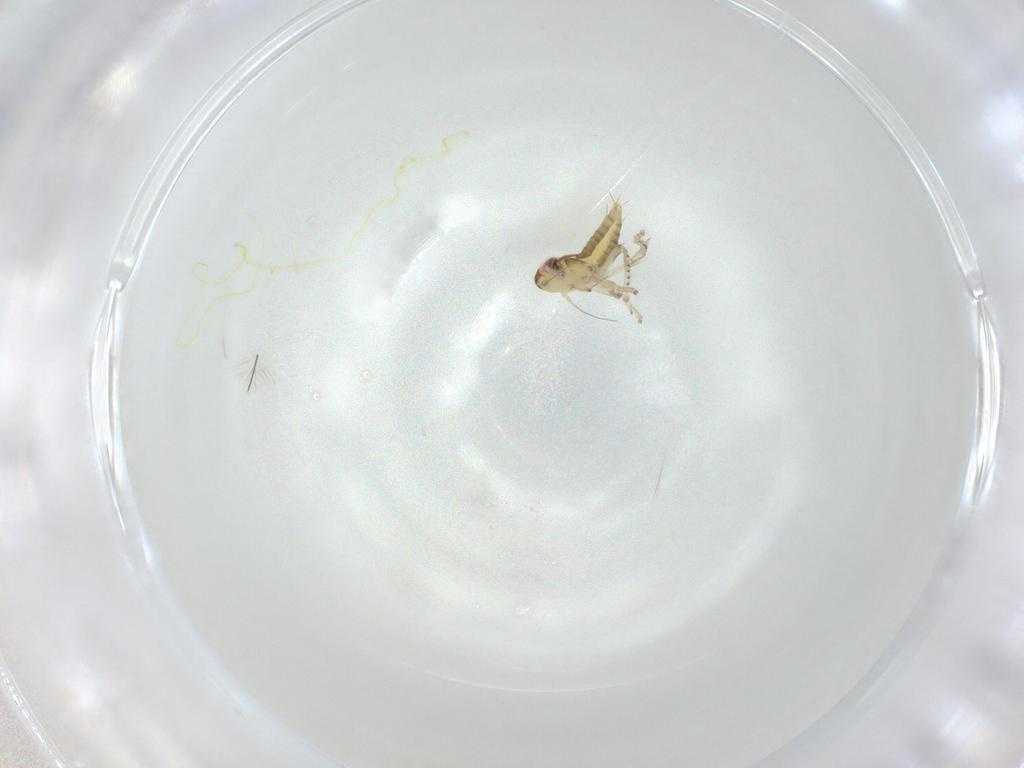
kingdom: Animalia
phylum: Arthropoda
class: Insecta
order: Hemiptera
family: Cicadellidae
